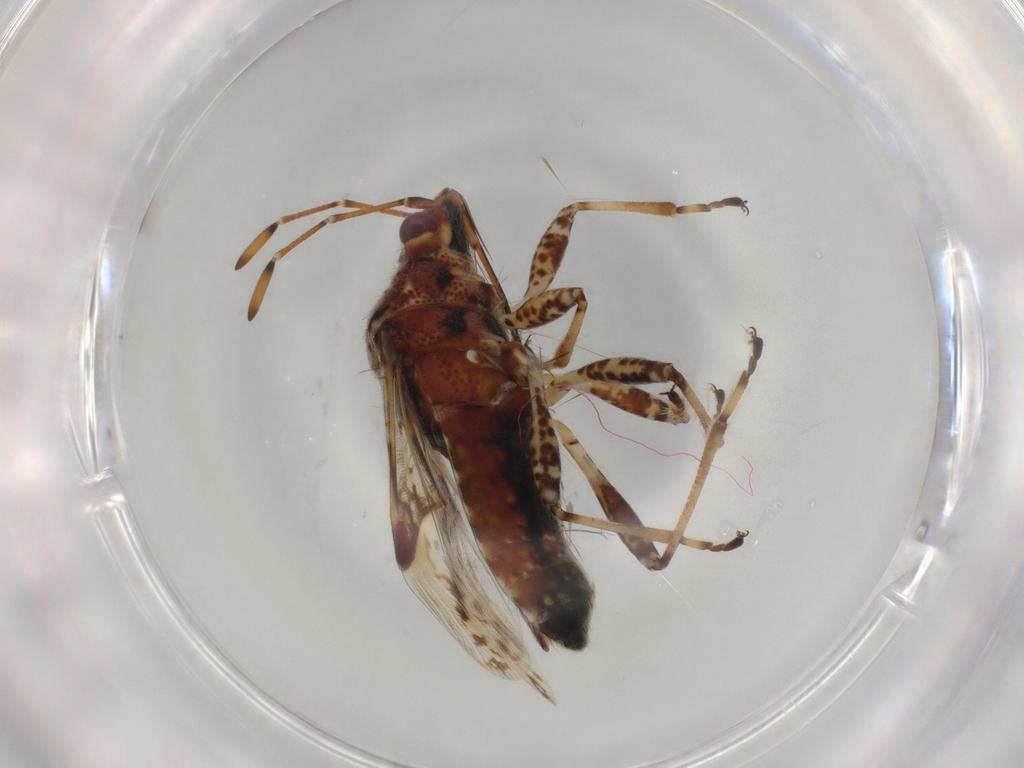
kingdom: Animalia
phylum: Arthropoda
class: Insecta
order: Hemiptera
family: Lygaeidae
